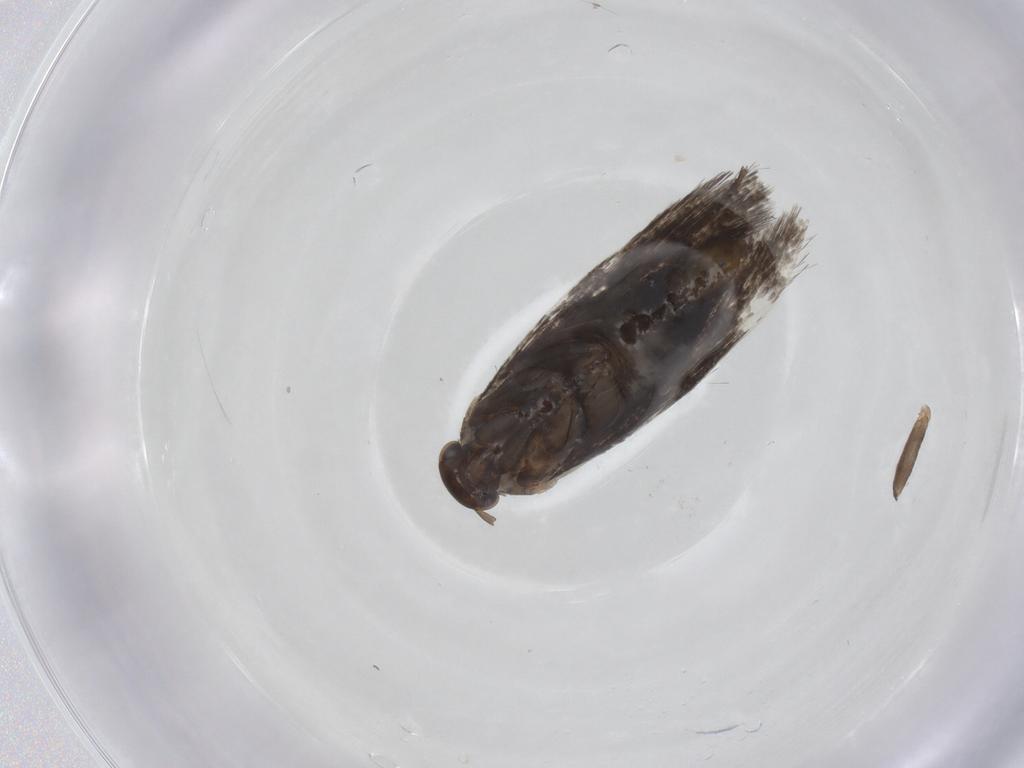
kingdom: Animalia
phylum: Arthropoda
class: Insecta
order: Lepidoptera
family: Elachistidae
